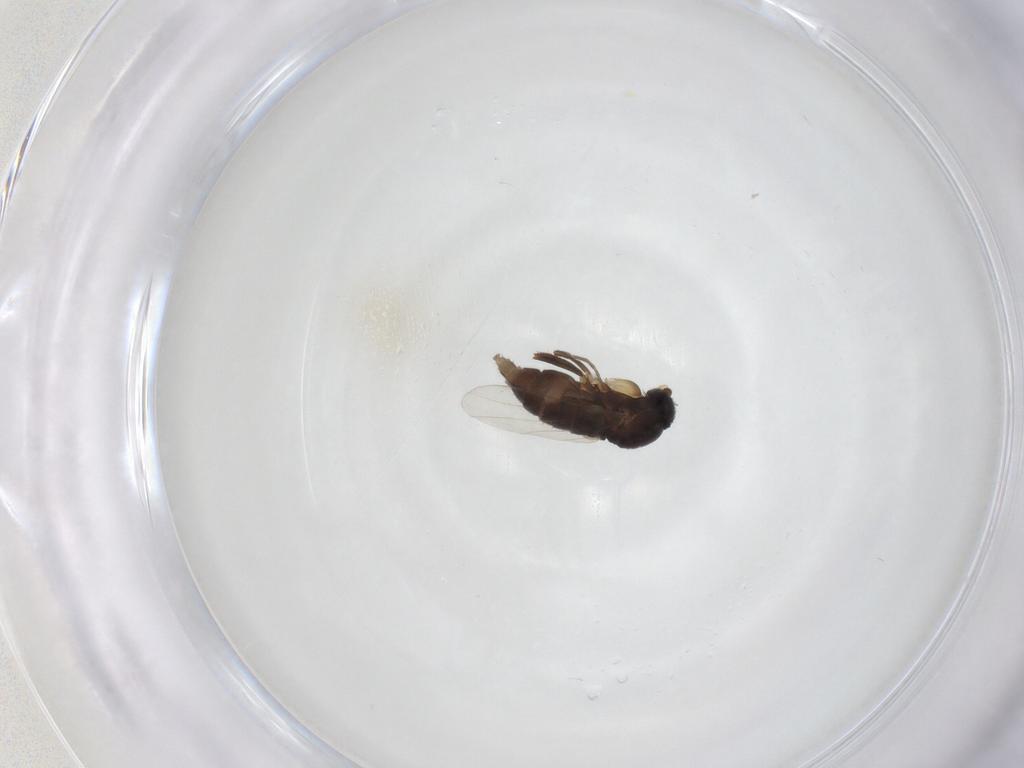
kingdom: Animalia
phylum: Arthropoda
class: Insecta
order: Diptera
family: Phoridae
